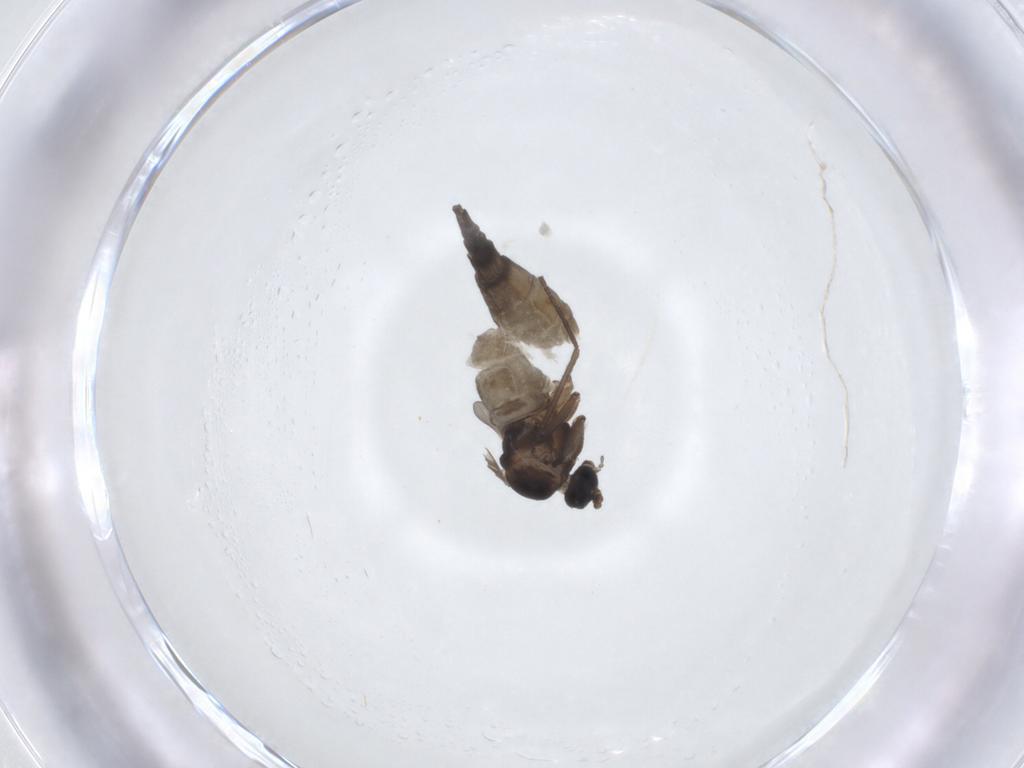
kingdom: Animalia
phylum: Arthropoda
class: Insecta
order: Diptera
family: Sciaridae
